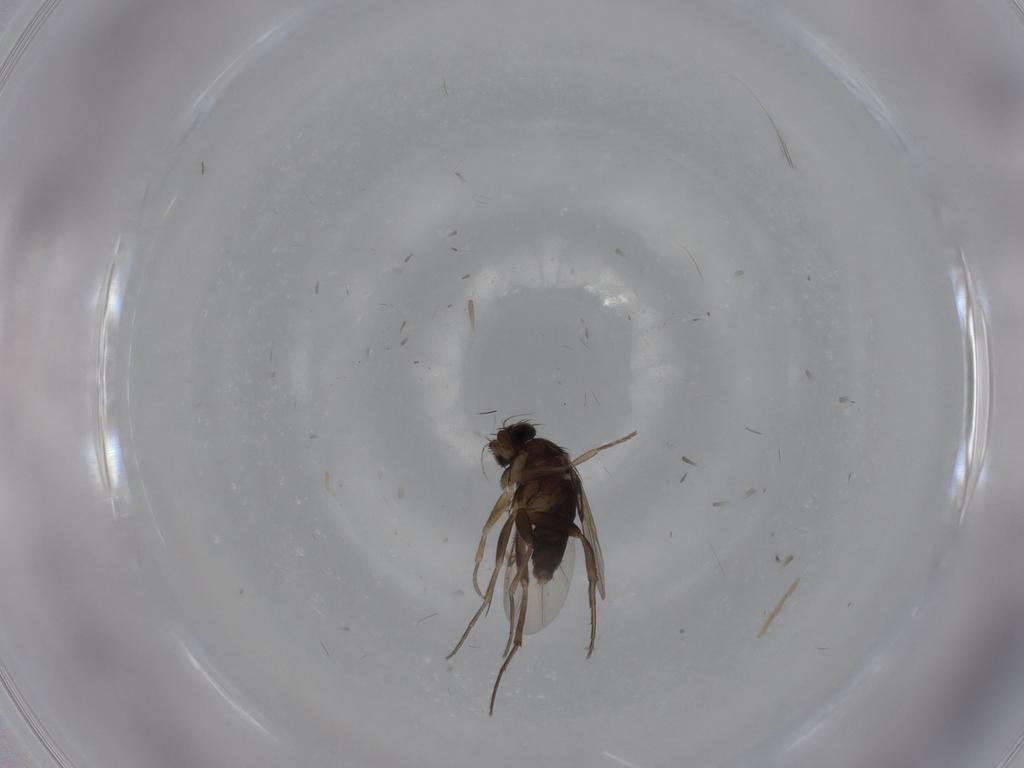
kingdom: Animalia
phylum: Arthropoda
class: Insecta
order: Diptera
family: Phoridae
